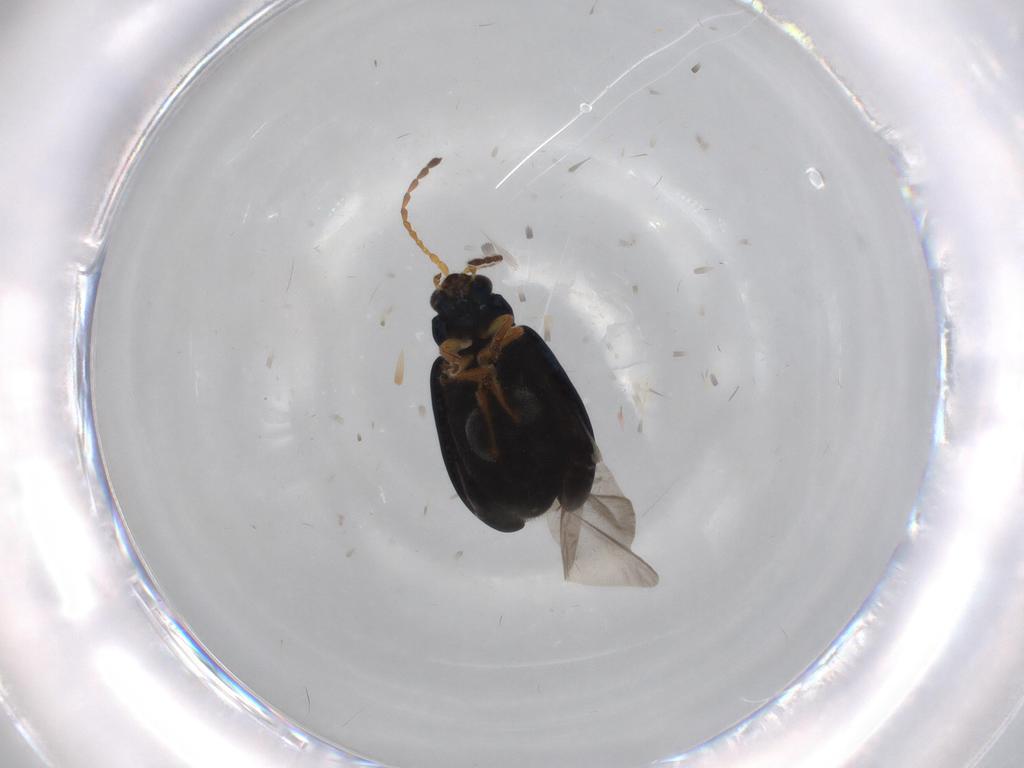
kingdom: Animalia
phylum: Arthropoda
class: Insecta
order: Coleoptera
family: Chrysomelidae
